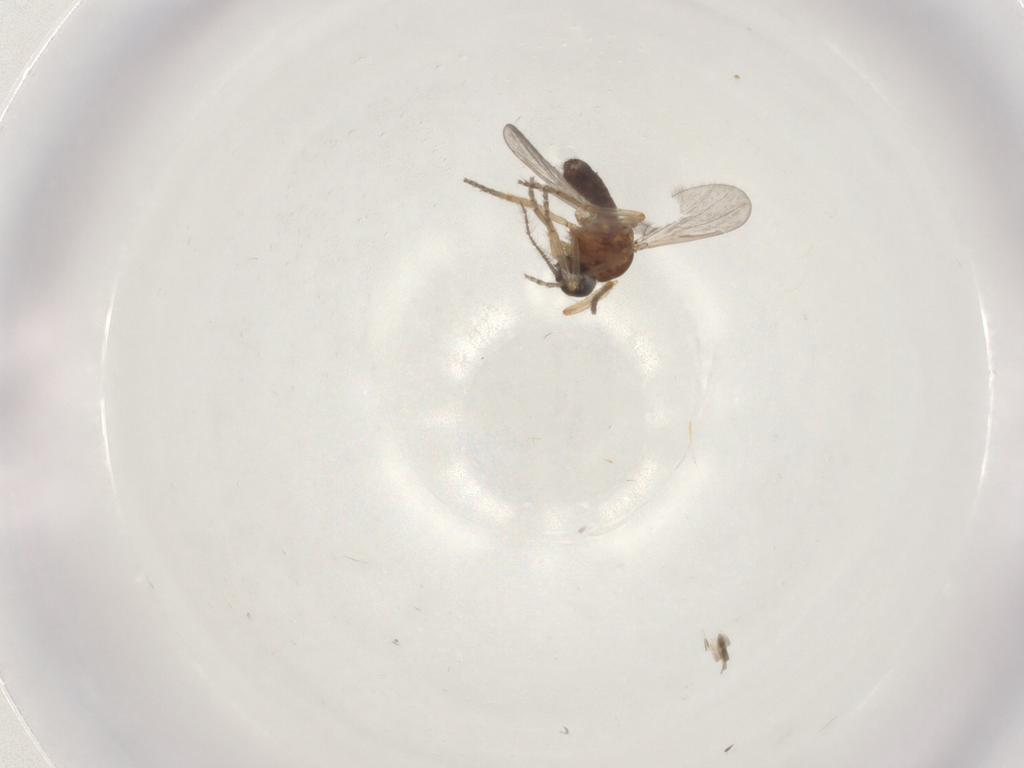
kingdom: Animalia
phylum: Arthropoda
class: Insecta
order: Diptera
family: Ceratopogonidae
